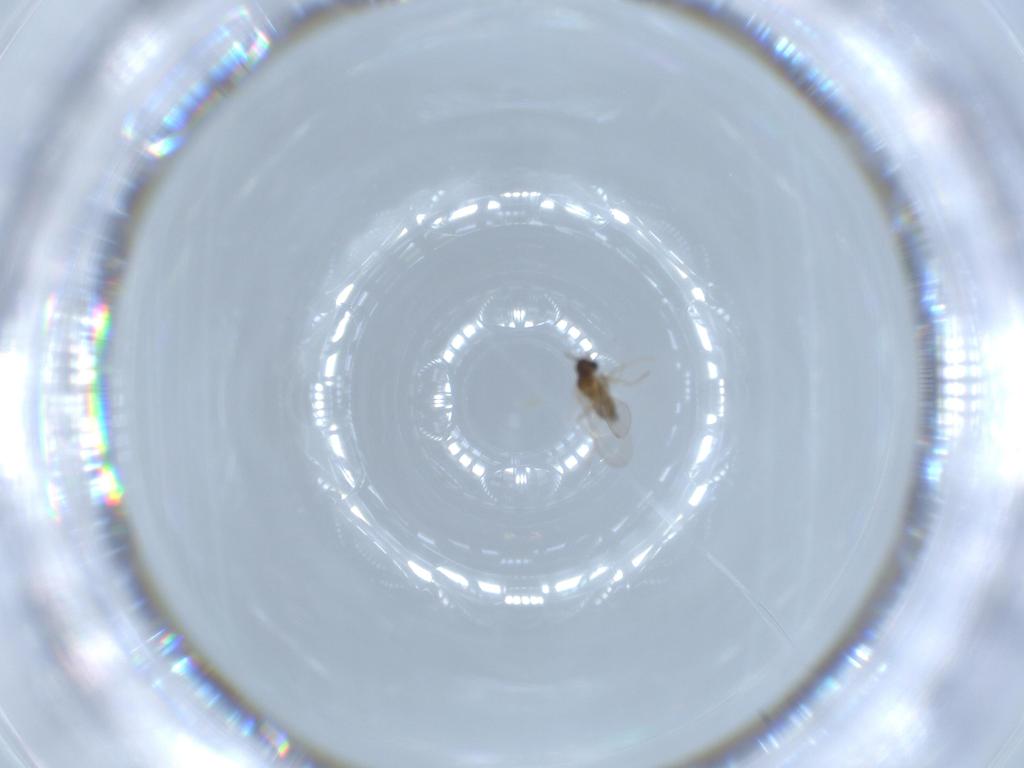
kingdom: Animalia
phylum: Arthropoda
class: Insecta
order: Diptera
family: Cecidomyiidae
